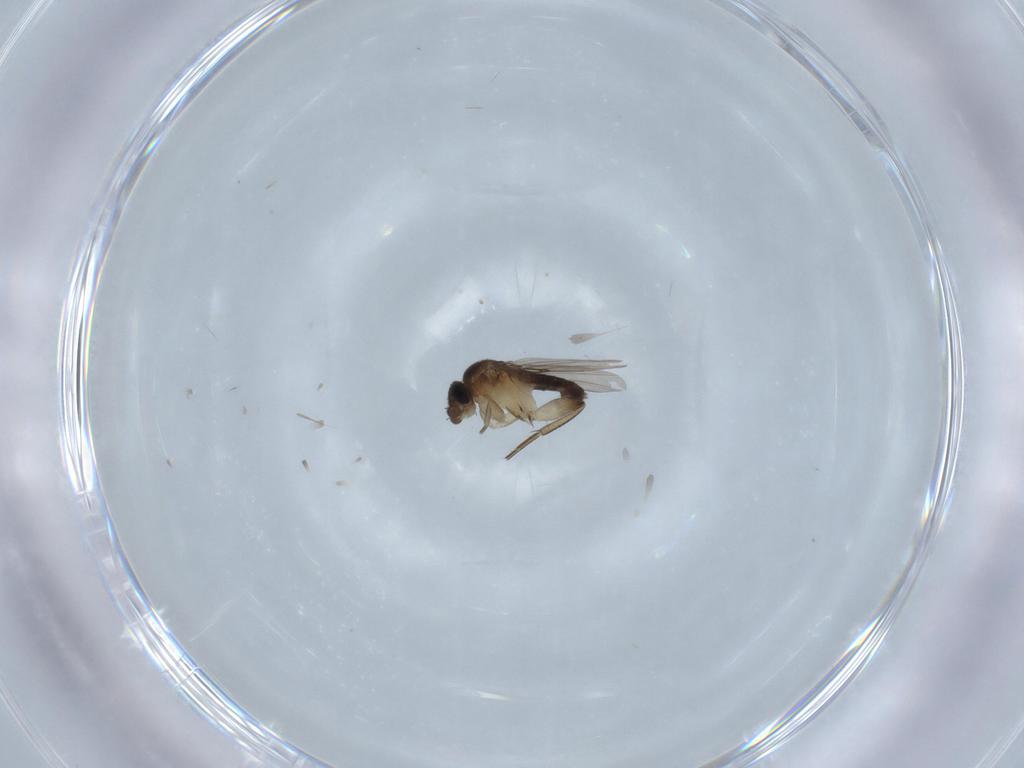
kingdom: Animalia
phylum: Arthropoda
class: Insecta
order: Diptera
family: Phoridae
